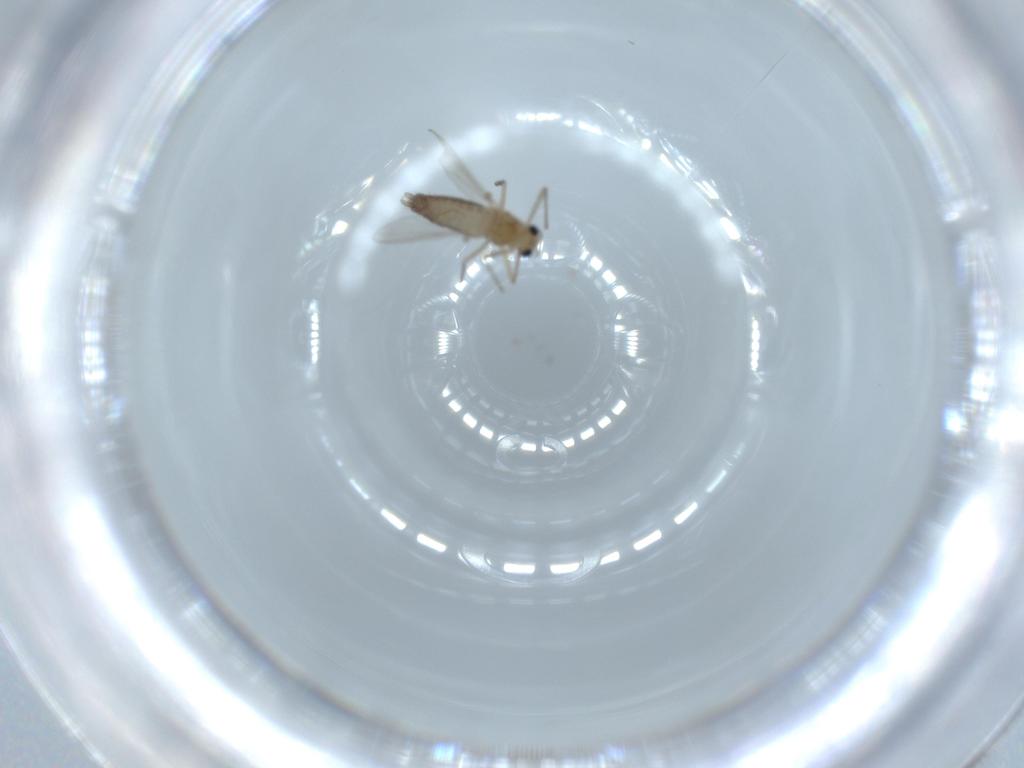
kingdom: Animalia
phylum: Arthropoda
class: Insecta
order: Diptera
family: Chironomidae
